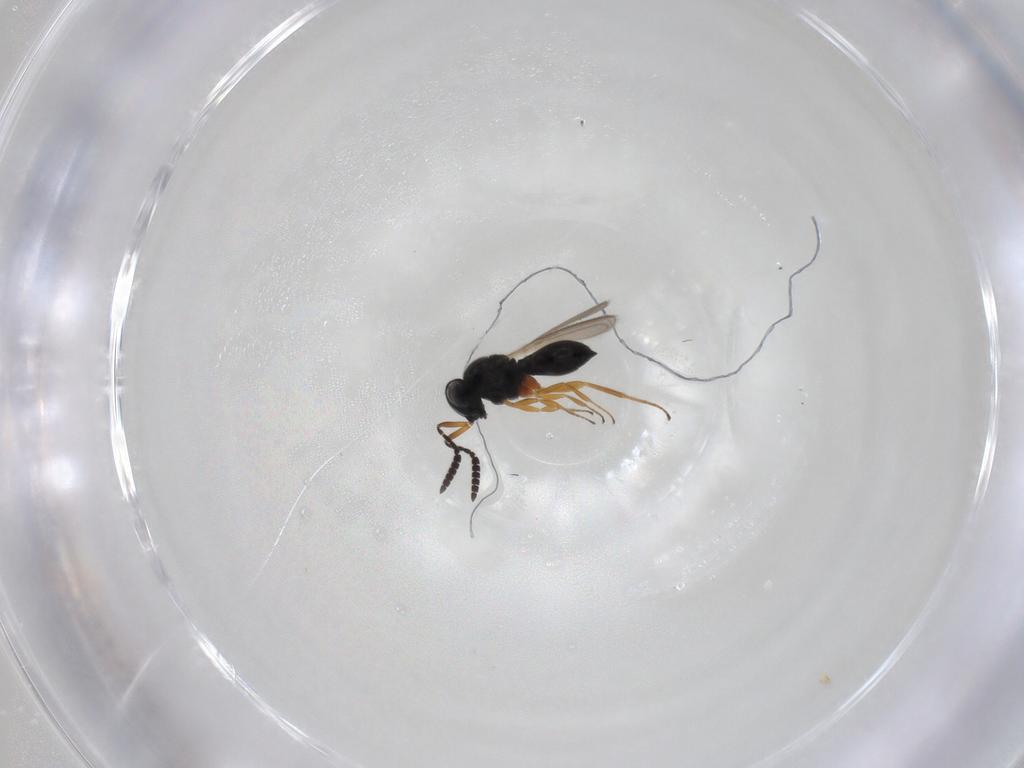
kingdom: Animalia
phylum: Arthropoda
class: Insecta
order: Hymenoptera
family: Scelionidae
